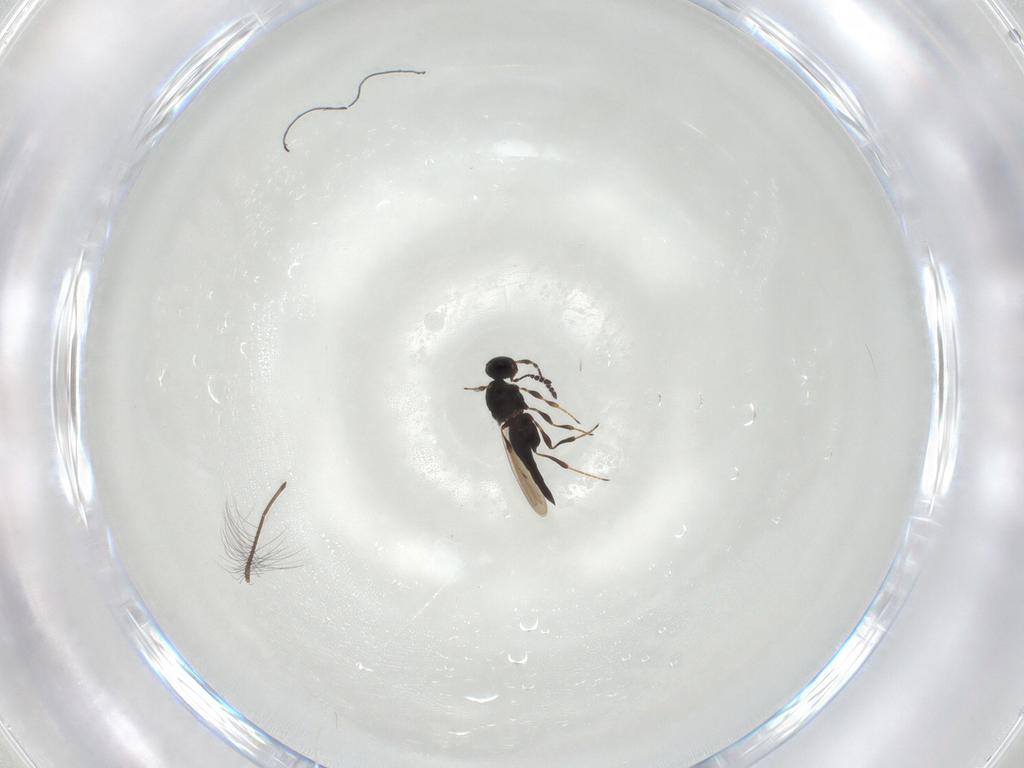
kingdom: Animalia
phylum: Arthropoda
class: Insecta
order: Hymenoptera
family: Platygastridae
